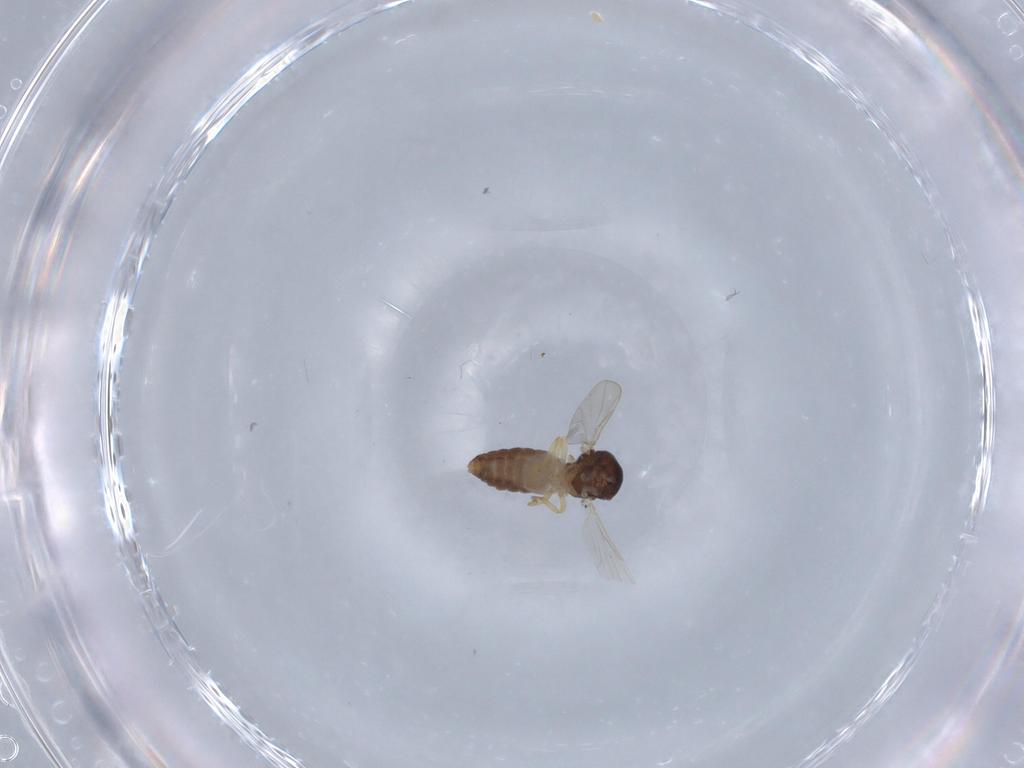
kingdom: Animalia
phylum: Arthropoda
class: Insecta
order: Diptera
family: Ceratopogonidae
